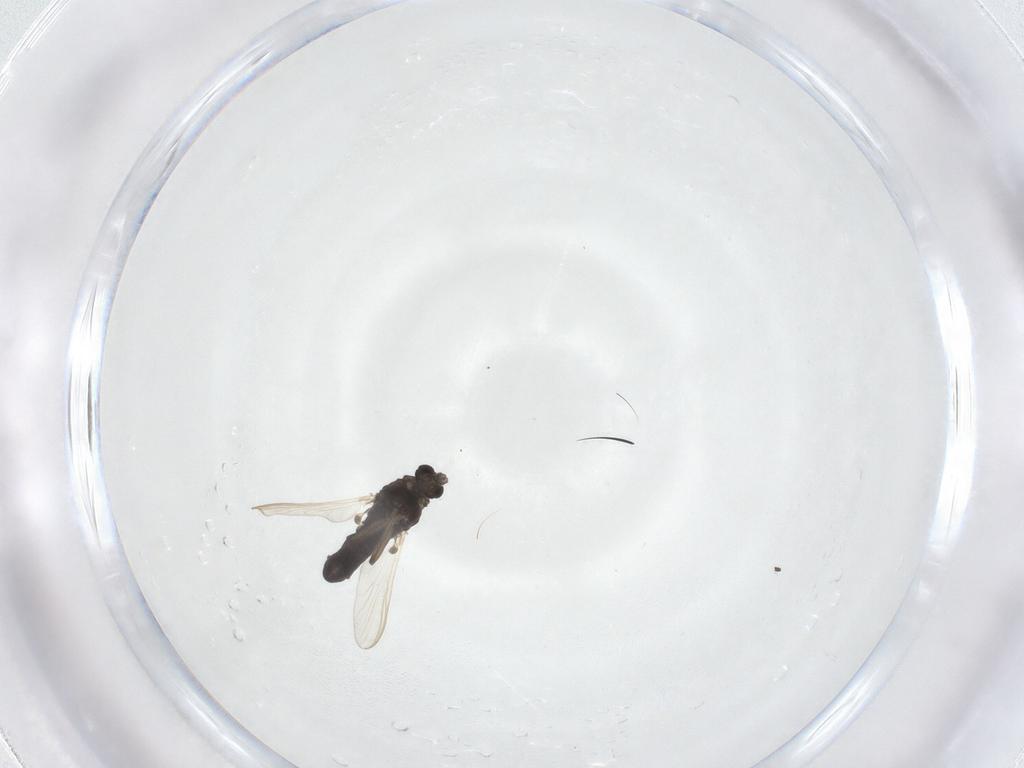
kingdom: Animalia
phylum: Arthropoda
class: Insecta
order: Diptera
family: Chironomidae
